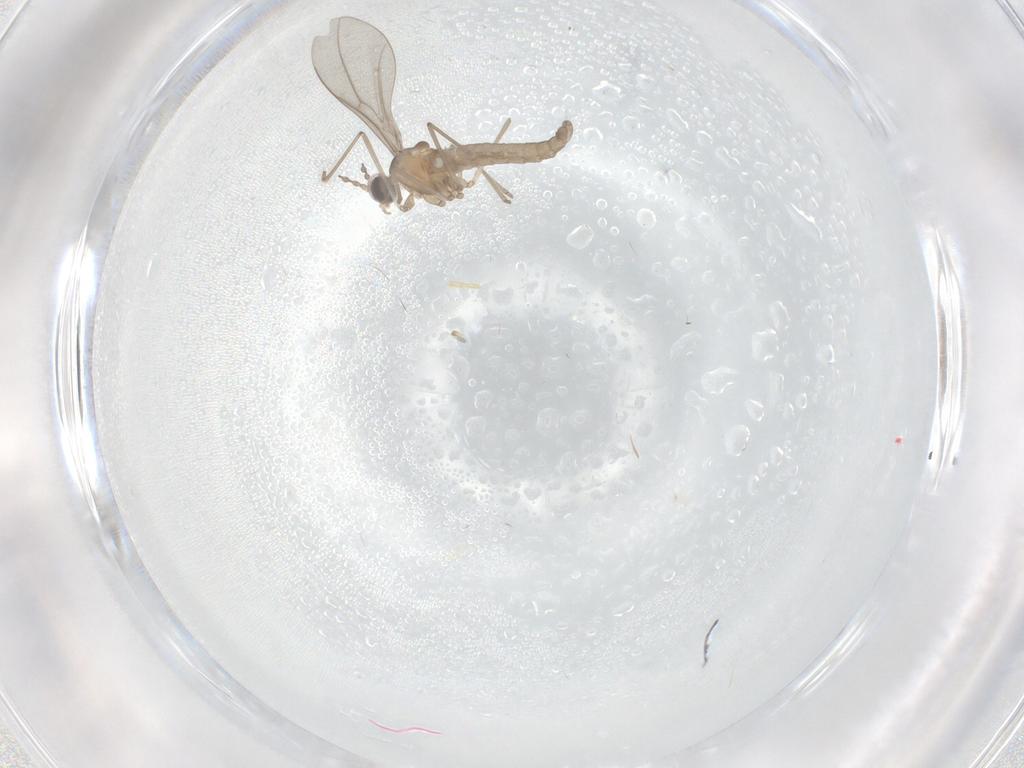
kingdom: Animalia
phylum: Arthropoda
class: Insecta
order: Diptera
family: Cecidomyiidae
